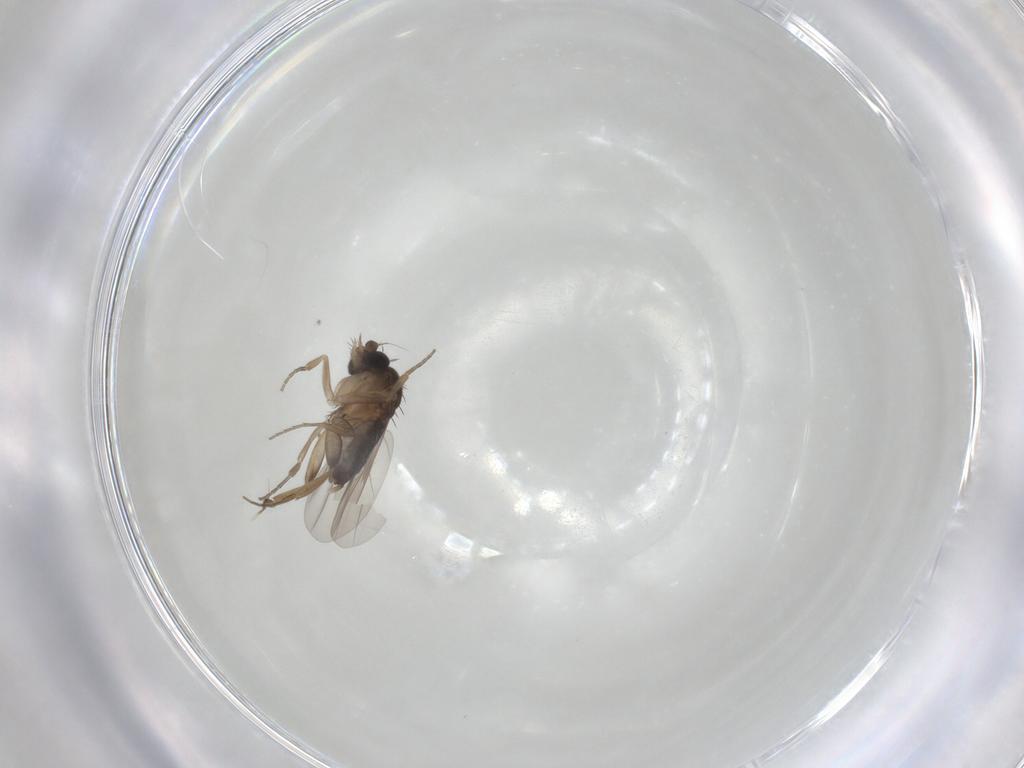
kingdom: Animalia
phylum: Arthropoda
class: Insecta
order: Diptera
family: Phoridae
